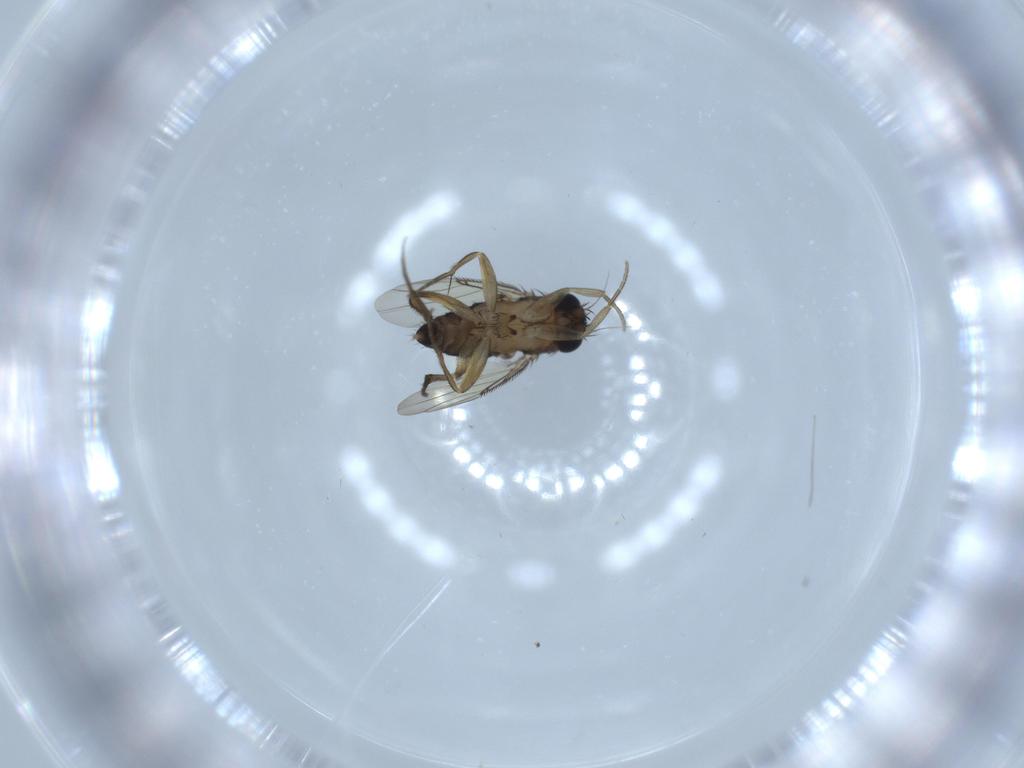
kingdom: Animalia
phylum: Arthropoda
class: Insecta
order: Diptera
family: Phoridae
